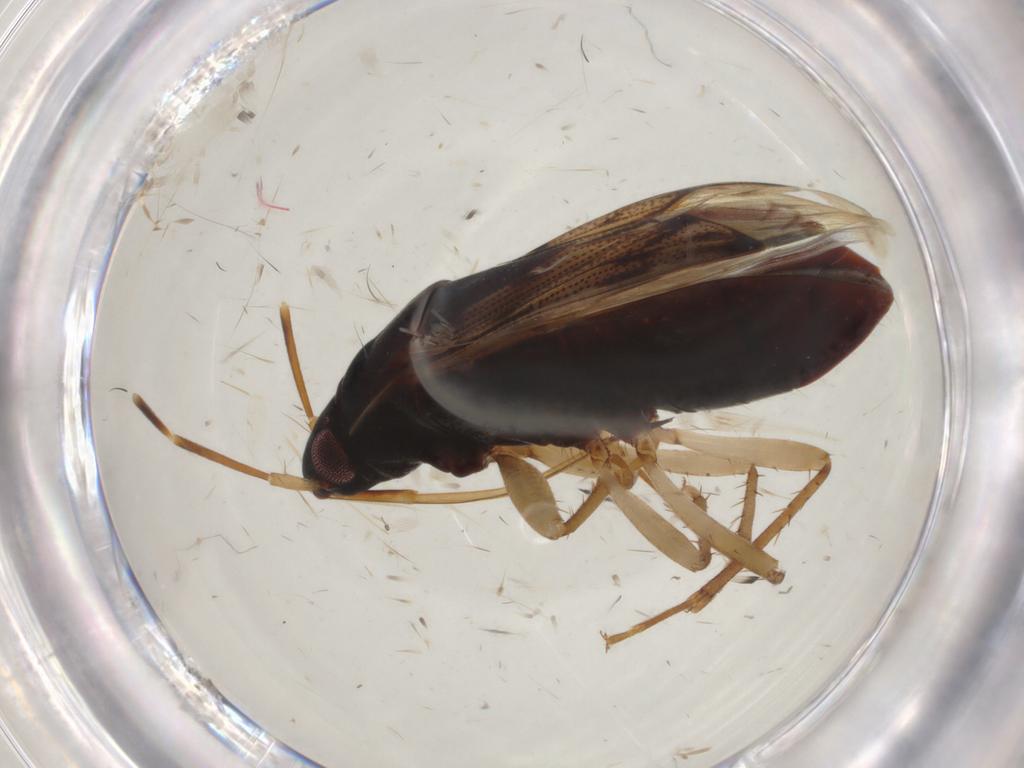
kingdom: Animalia
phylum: Arthropoda
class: Insecta
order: Hemiptera
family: Rhyparochromidae
